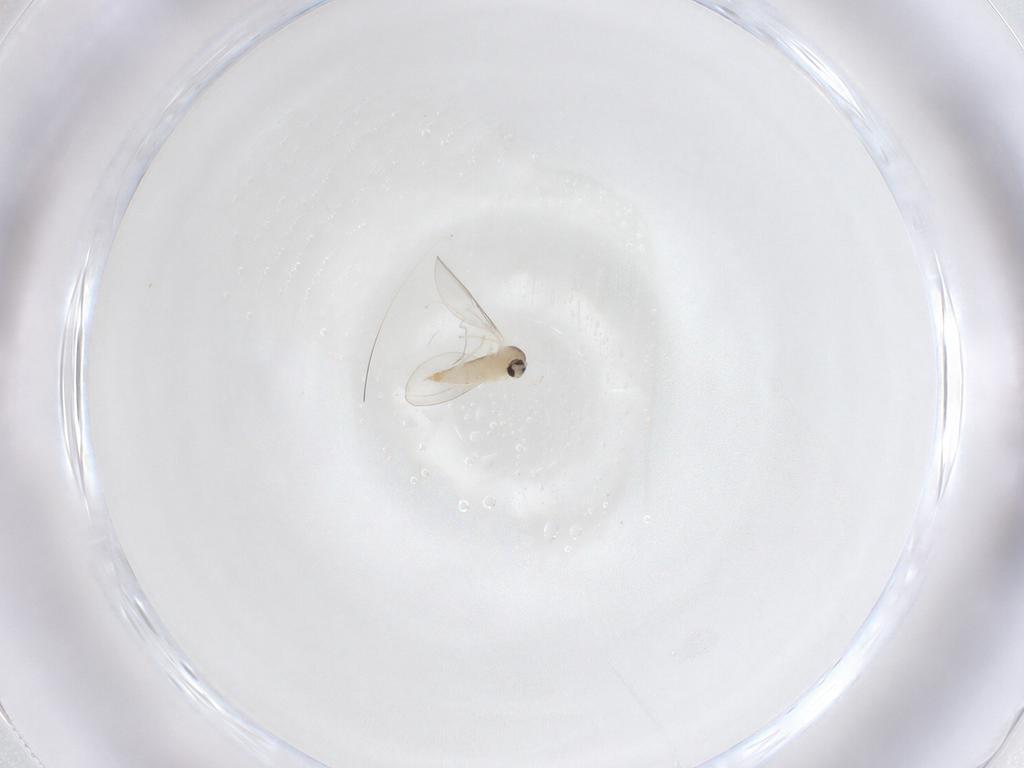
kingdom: Animalia
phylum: Arthropoda
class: Insecta
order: Diptera
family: Cecidomyiidae
